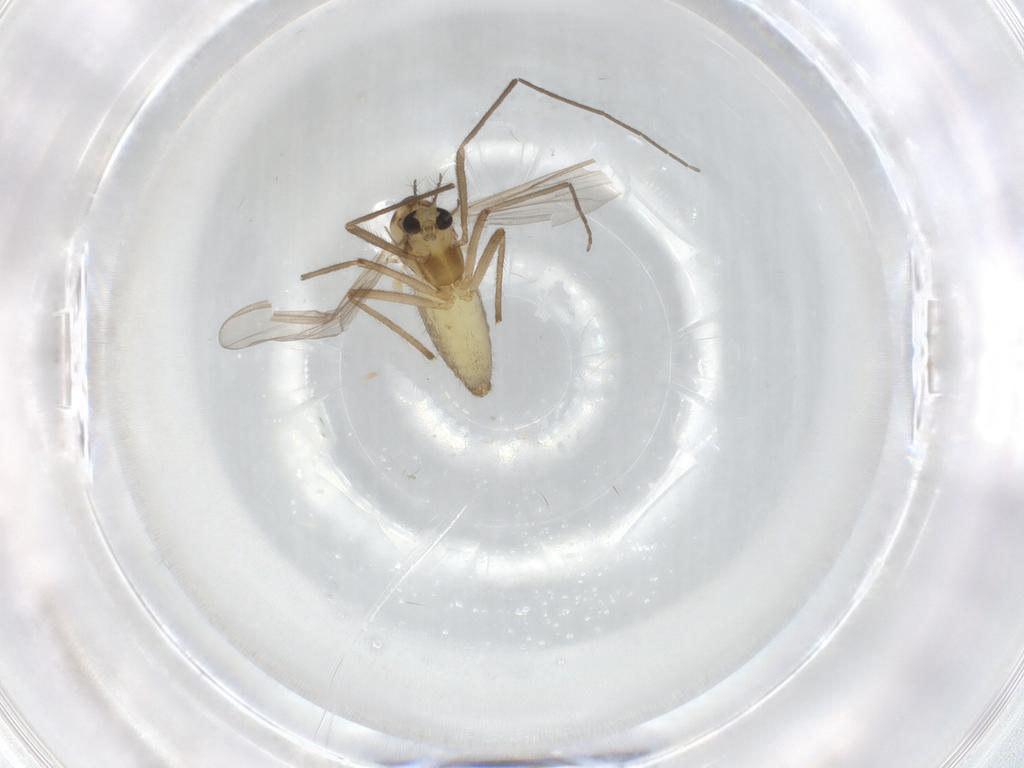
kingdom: Animalia
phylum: Arthropoda
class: Insecta
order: Diptera
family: Chironomidae
